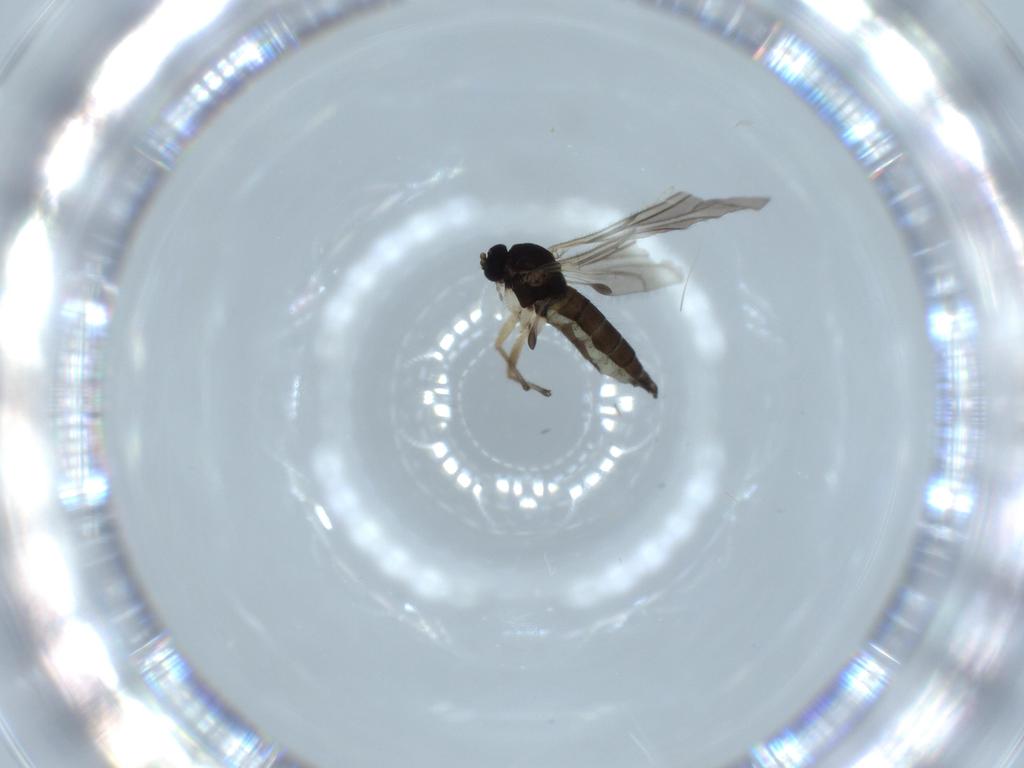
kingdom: Animalia
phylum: Arthropoda
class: Insecta
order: Diptera
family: Sciaridae
